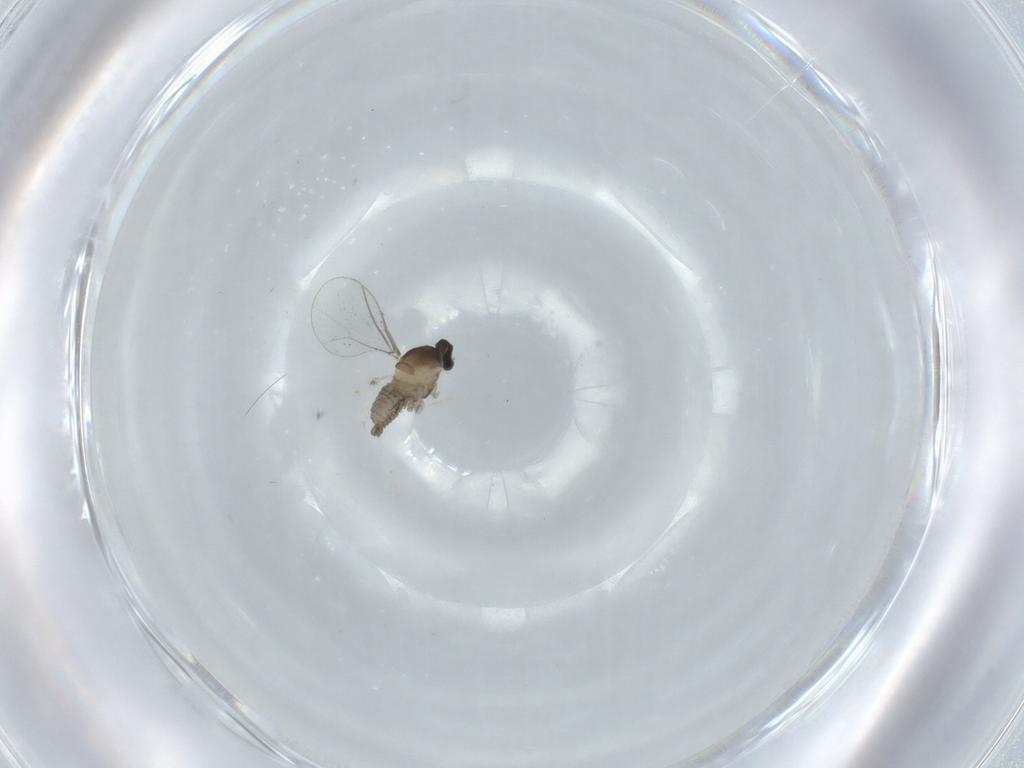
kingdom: Animalia
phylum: Arthropoda
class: Insecta
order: Diptera
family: Cecidomyiidae
